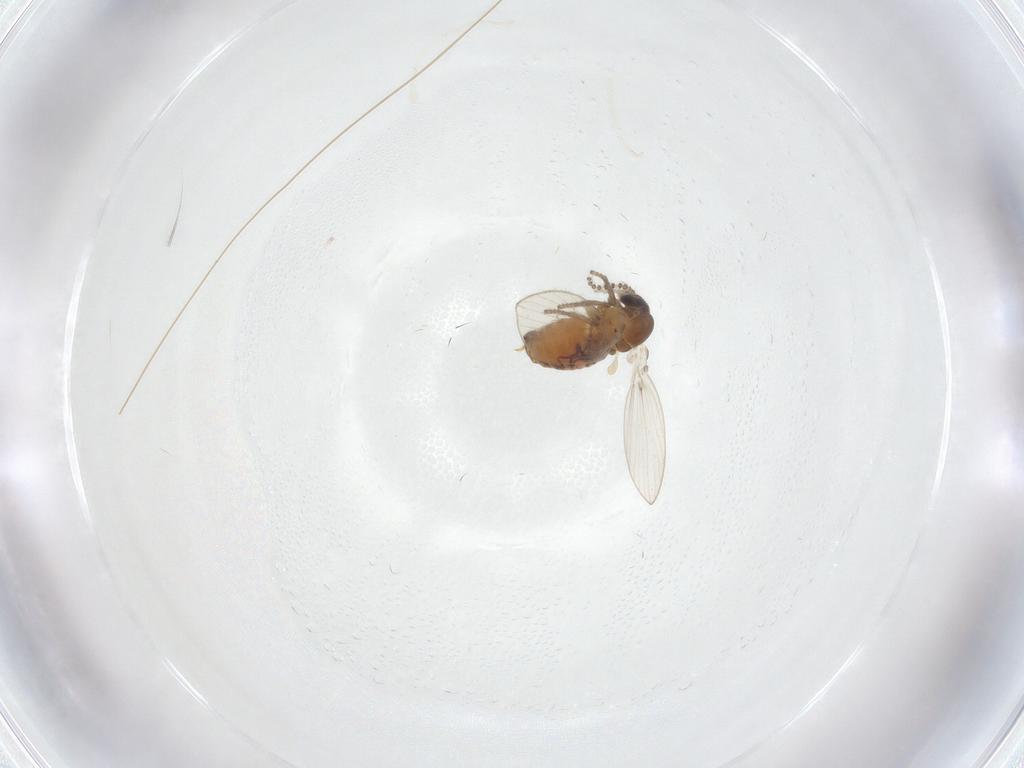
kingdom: Animalia
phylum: Arthropoda
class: Insecta
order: Diptera
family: Psychodidae
